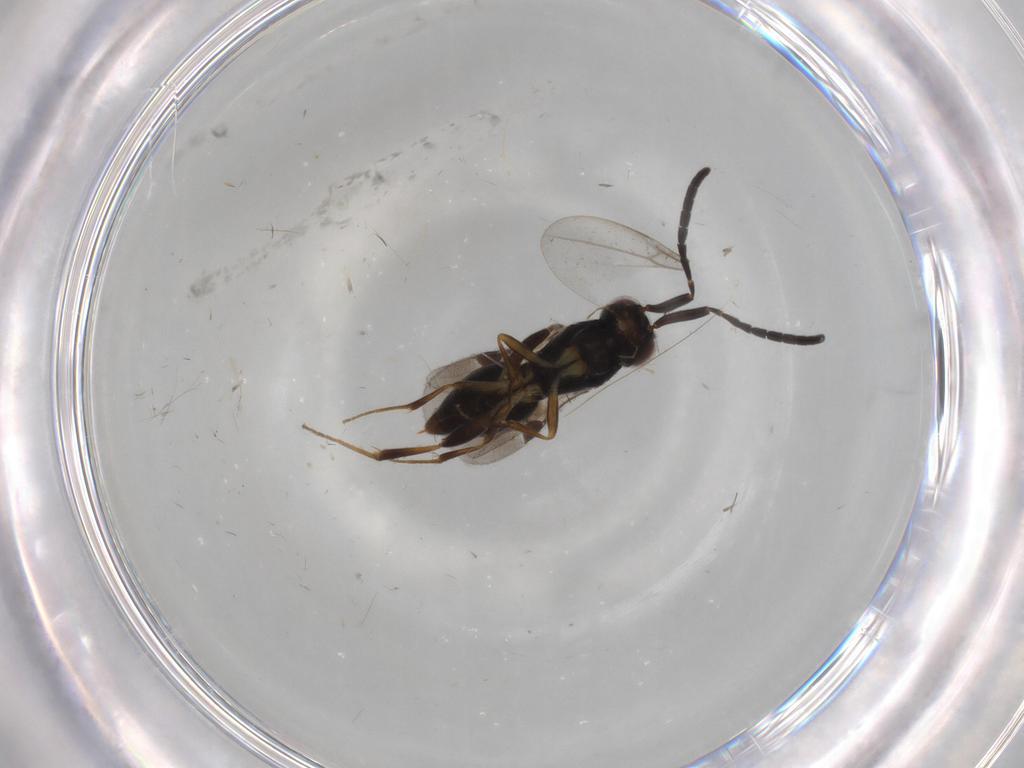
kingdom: Animalia
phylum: Arthropoda
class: Insecta
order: Hymenoptera
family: Megaspilidae
